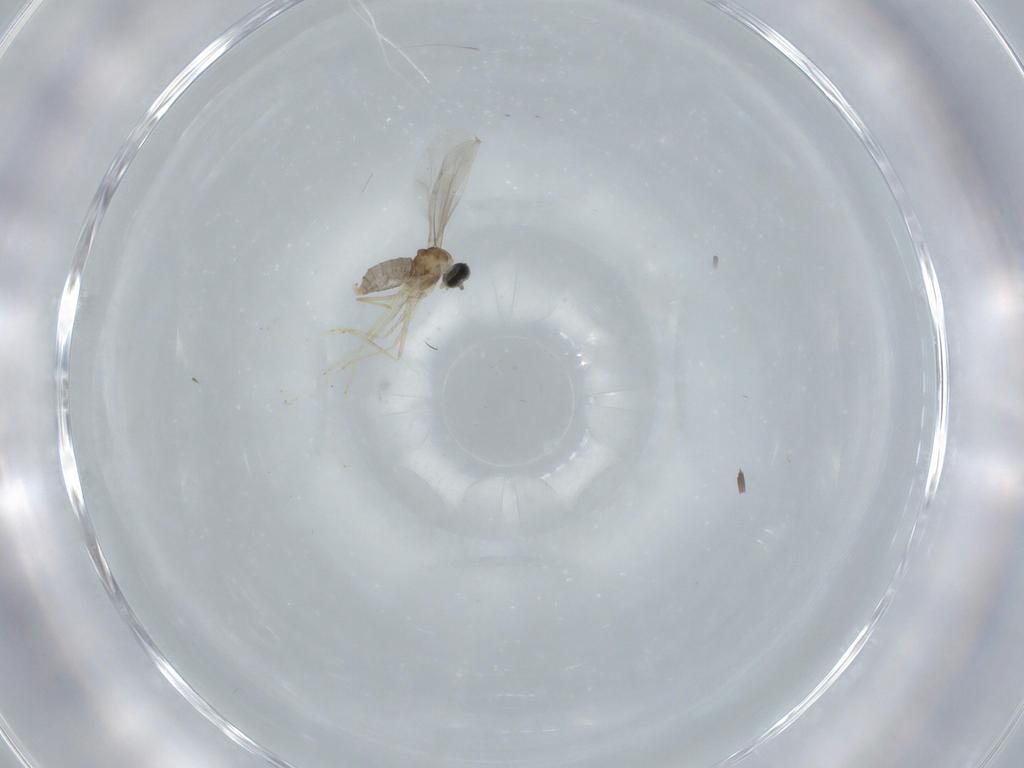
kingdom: Animalia
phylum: Arthropoda
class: Insecta
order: Diptera
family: Cecidomyiidae
